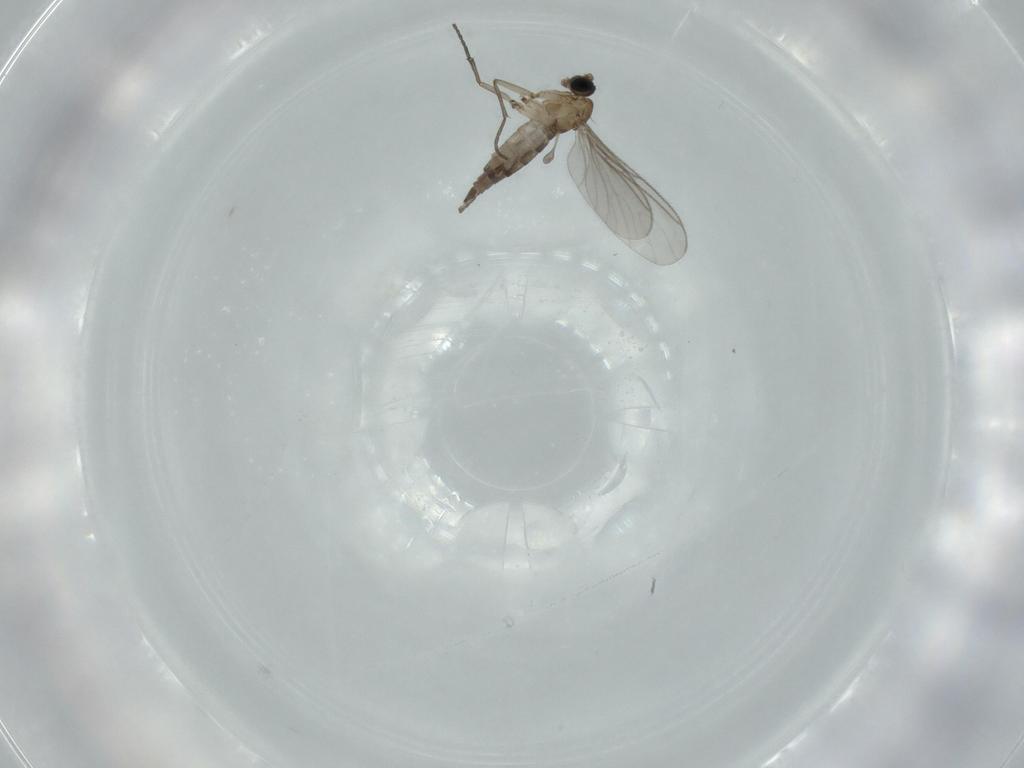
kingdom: Animalia
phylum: Arthropoda
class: Insecta
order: Diptera
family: Sciaridae
